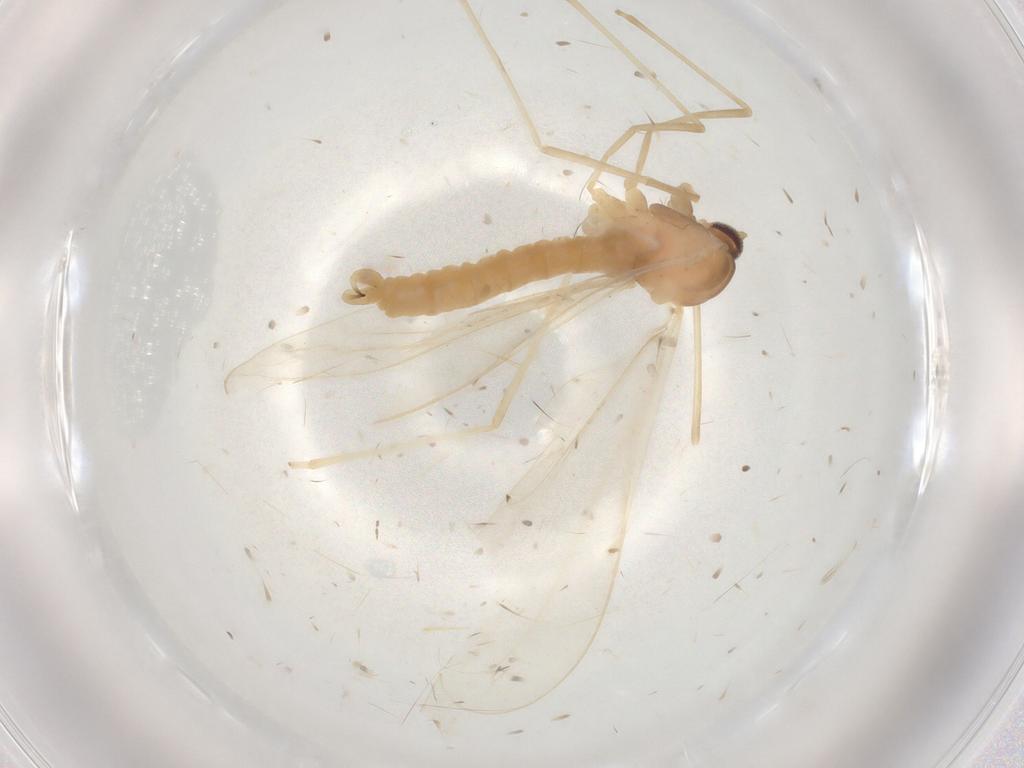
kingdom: Animalia
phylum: Arthropoda
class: Insecta
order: Diptera
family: Cecidomyiidae
